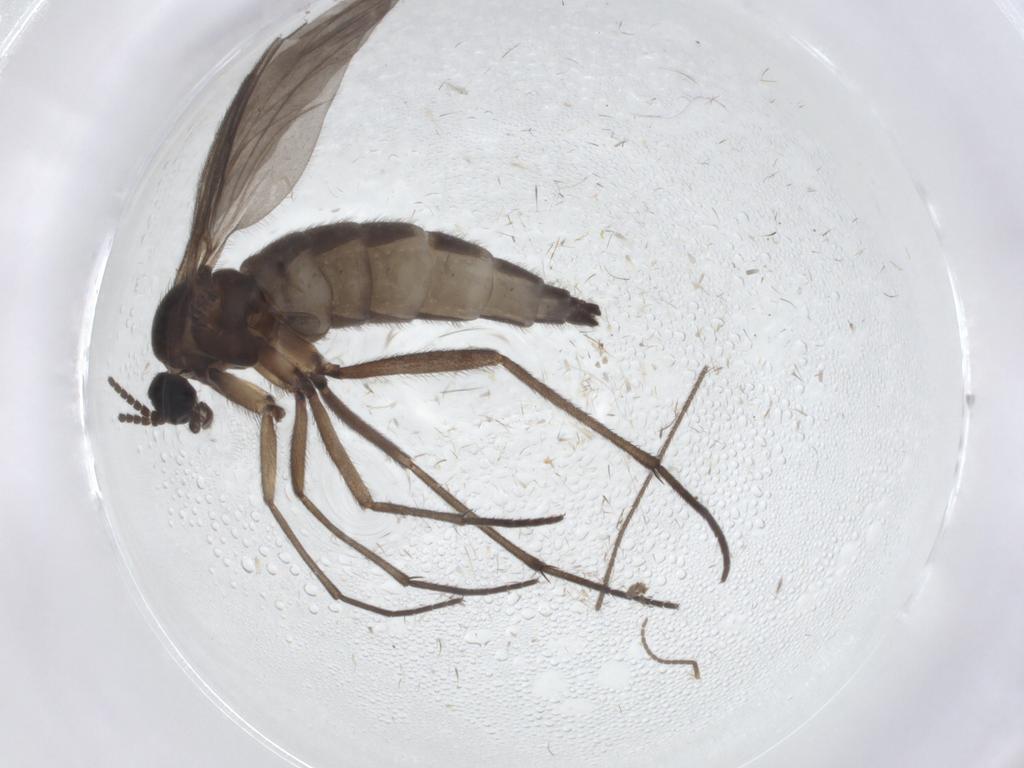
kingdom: Animalia
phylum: Arthropoda
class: Insecta
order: Diptera
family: Sciaridae
